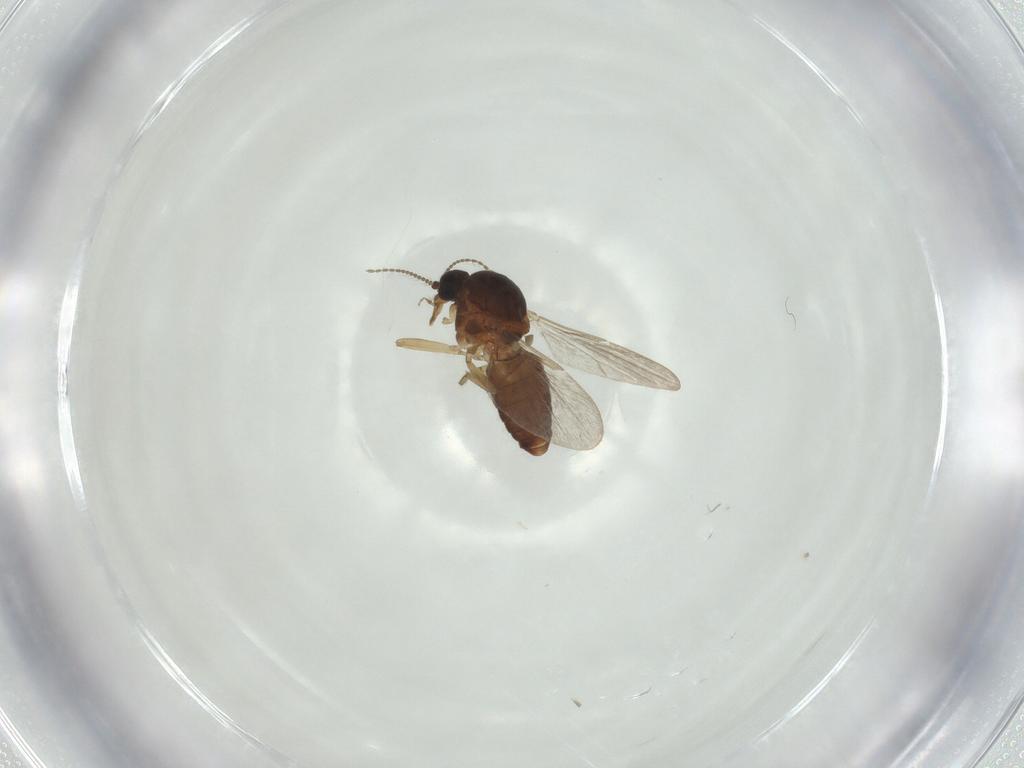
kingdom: Animalia
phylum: Arthropoda
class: Insecta
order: Diptera
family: Ceratopogonidae
